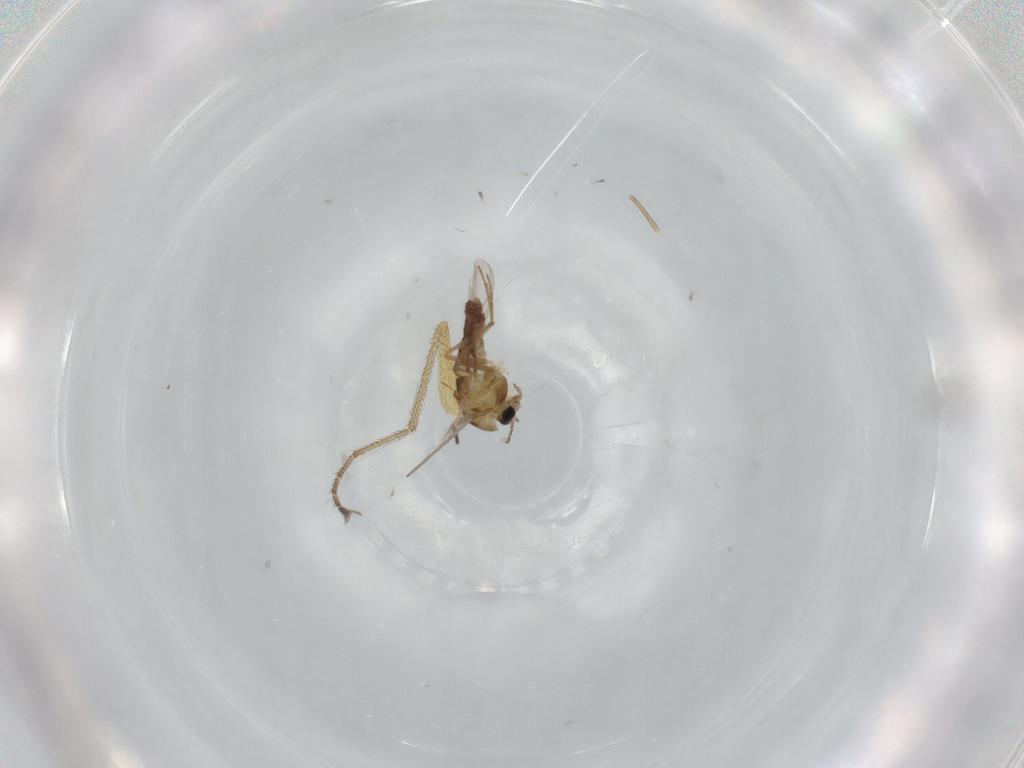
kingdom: Animalia
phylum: Arthropoda
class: Insecta
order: Diptera
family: Dolichopodidae
